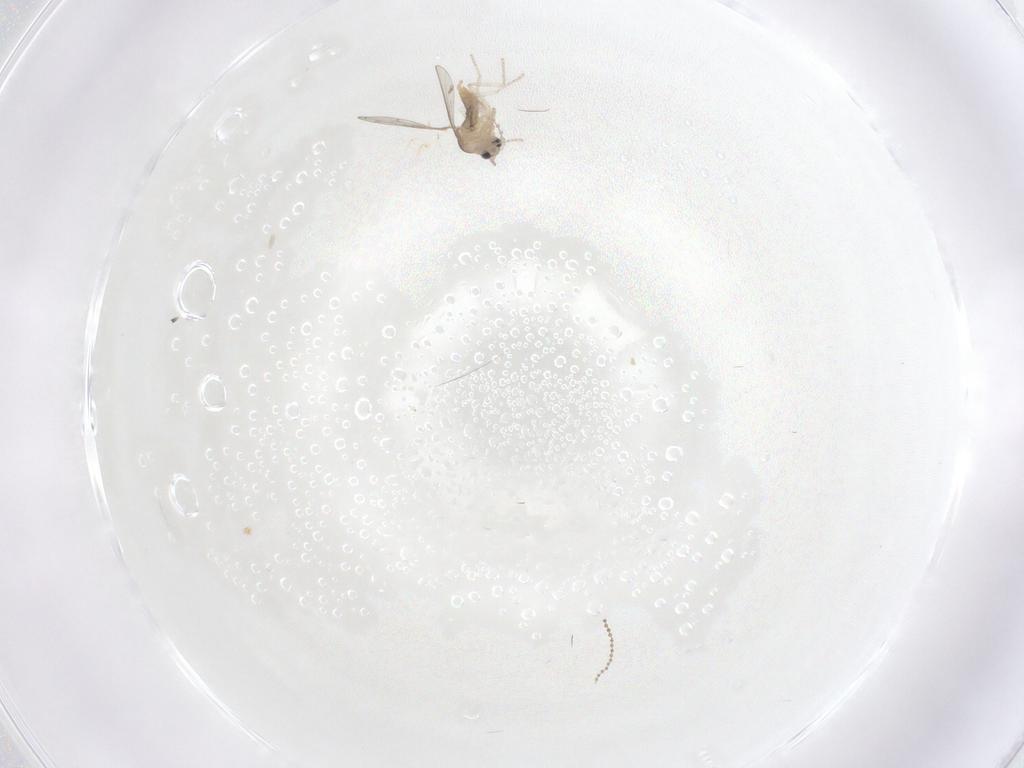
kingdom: Animalia
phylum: Arthropoda
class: Insecta
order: Diptera
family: Cecidomyiidae
